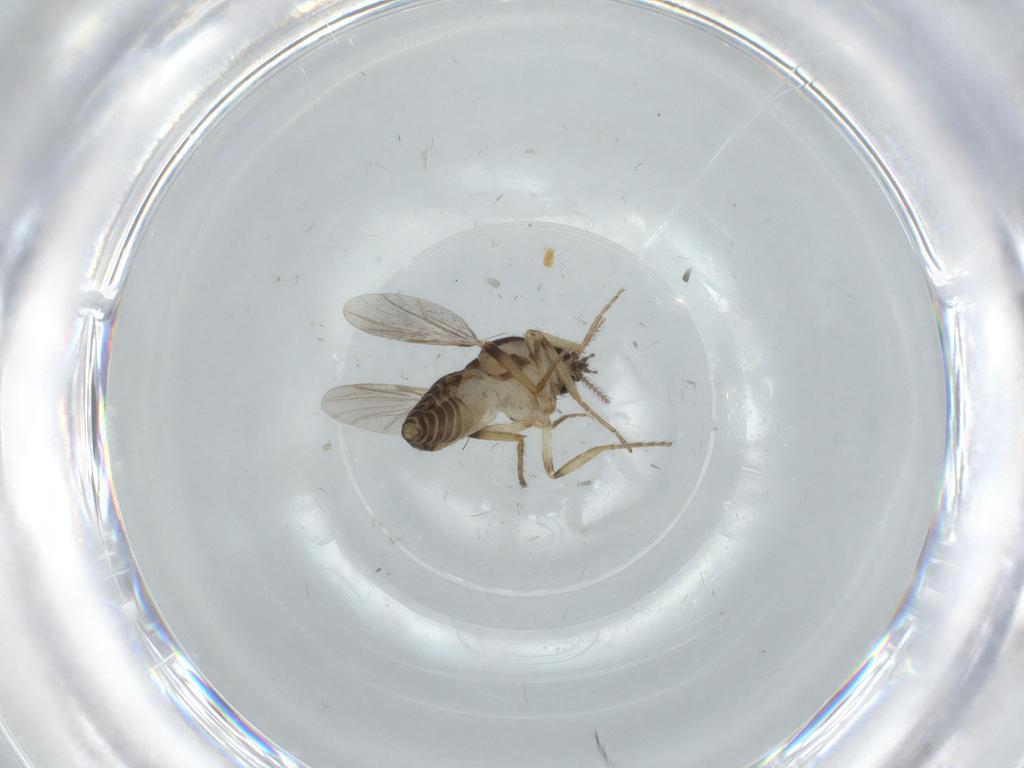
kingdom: Animalia
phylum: Arthropoda
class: Insecta
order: Diptera
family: Ceratopogonidae
